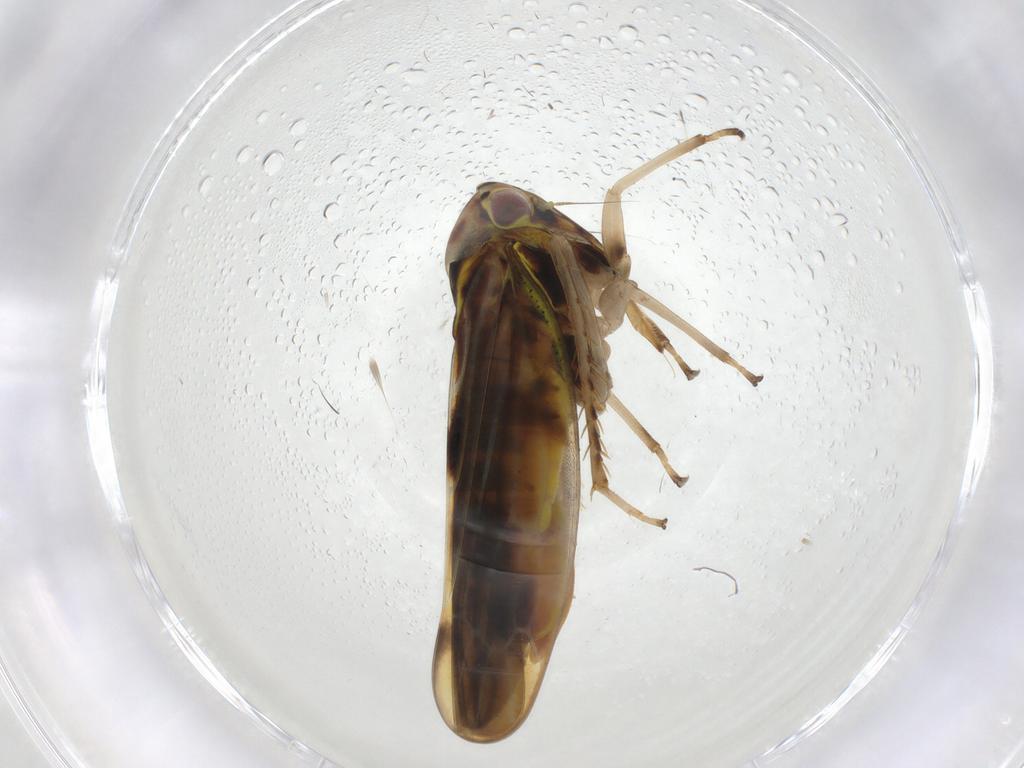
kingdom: Animalia
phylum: Arthropoda
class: Insecta
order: Hemiptera
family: Cicadellidae
